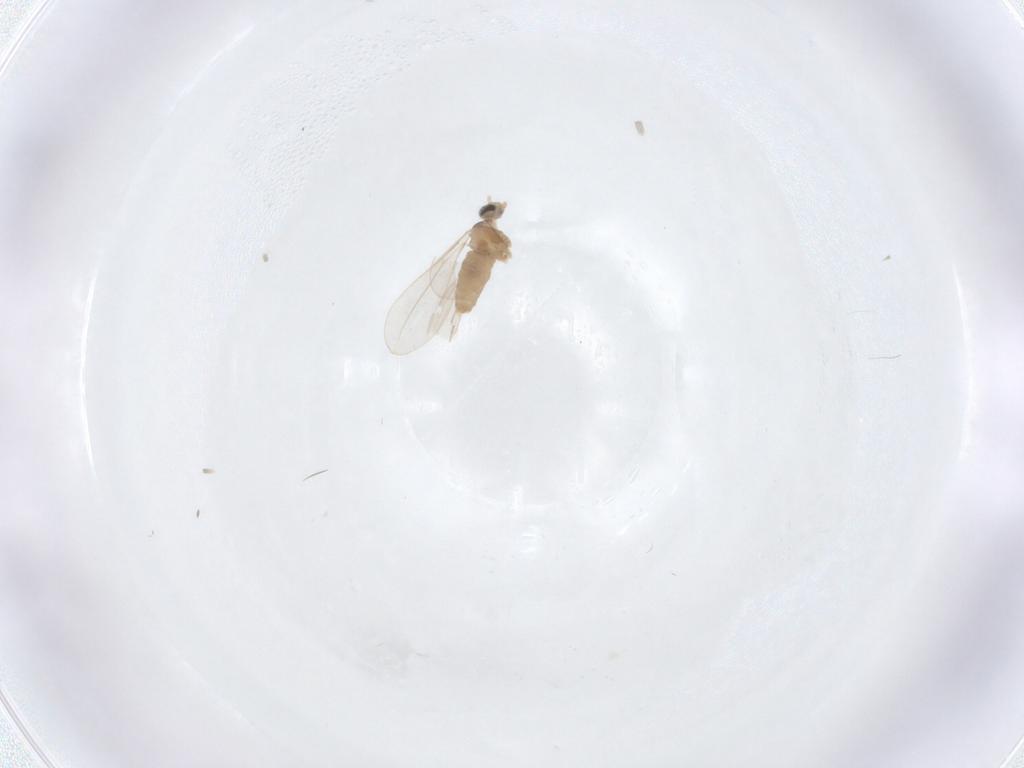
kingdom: Animalia
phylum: Arthropoda
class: Insecta
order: Diptera
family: Cecidomyiidae
